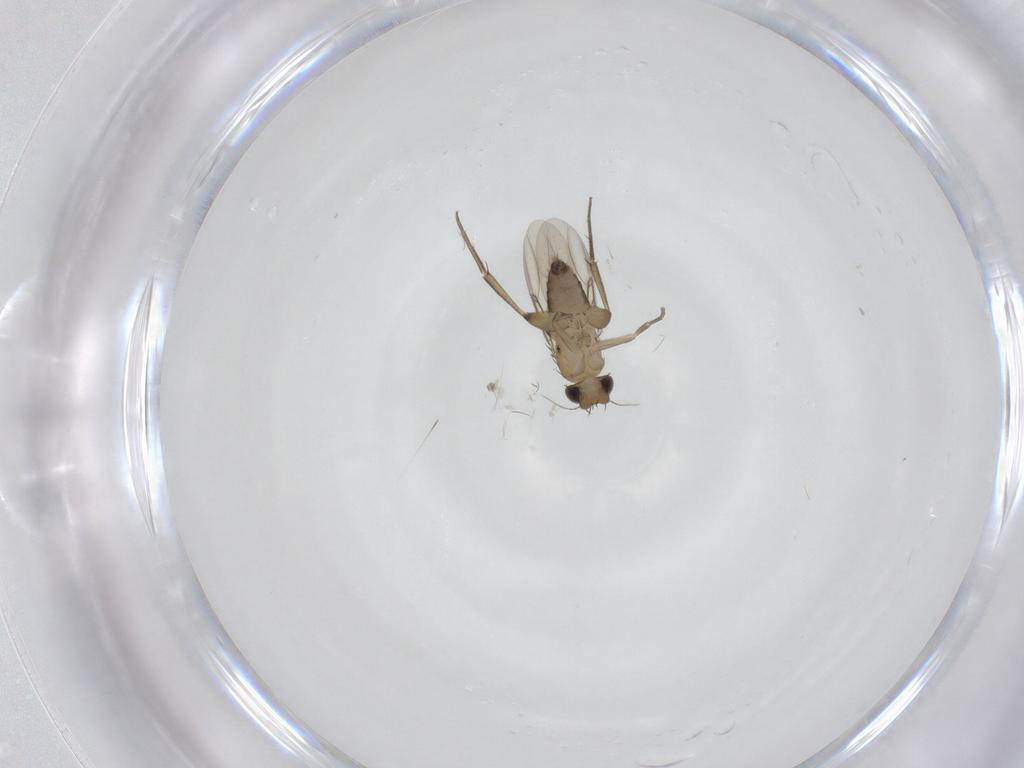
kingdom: Animalia
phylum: Arthropoda
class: Insecta
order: Diptera
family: Phoridae
